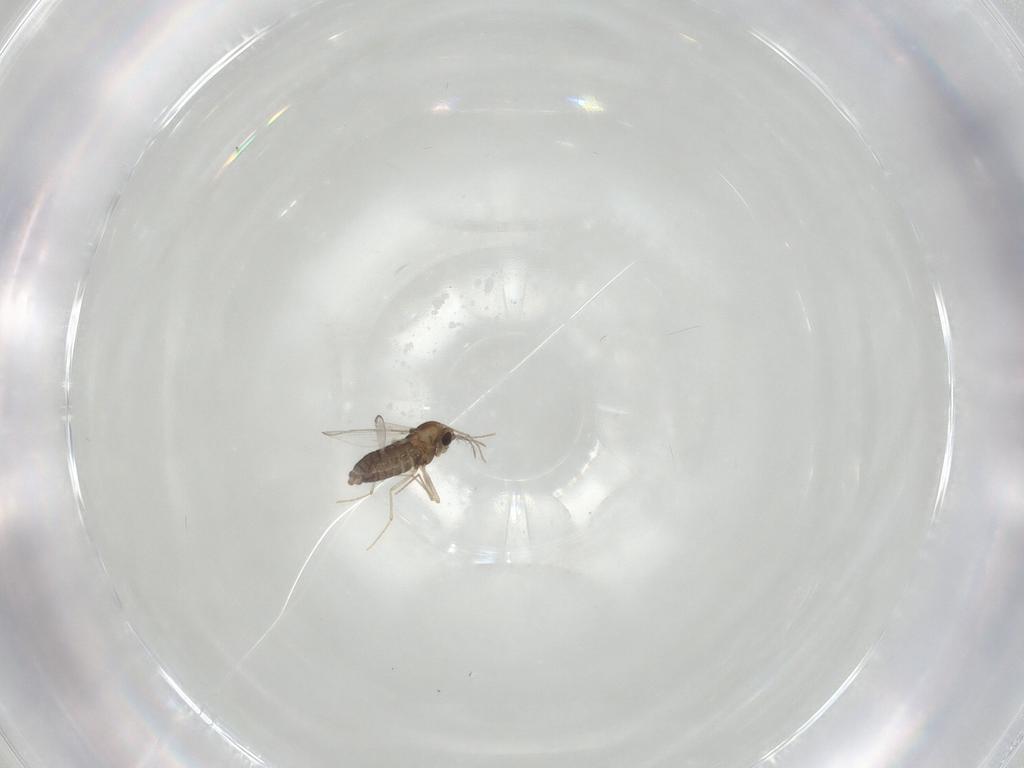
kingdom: Animalia
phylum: Arthropoda
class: Insecta
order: Diptera
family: Chironomidae
